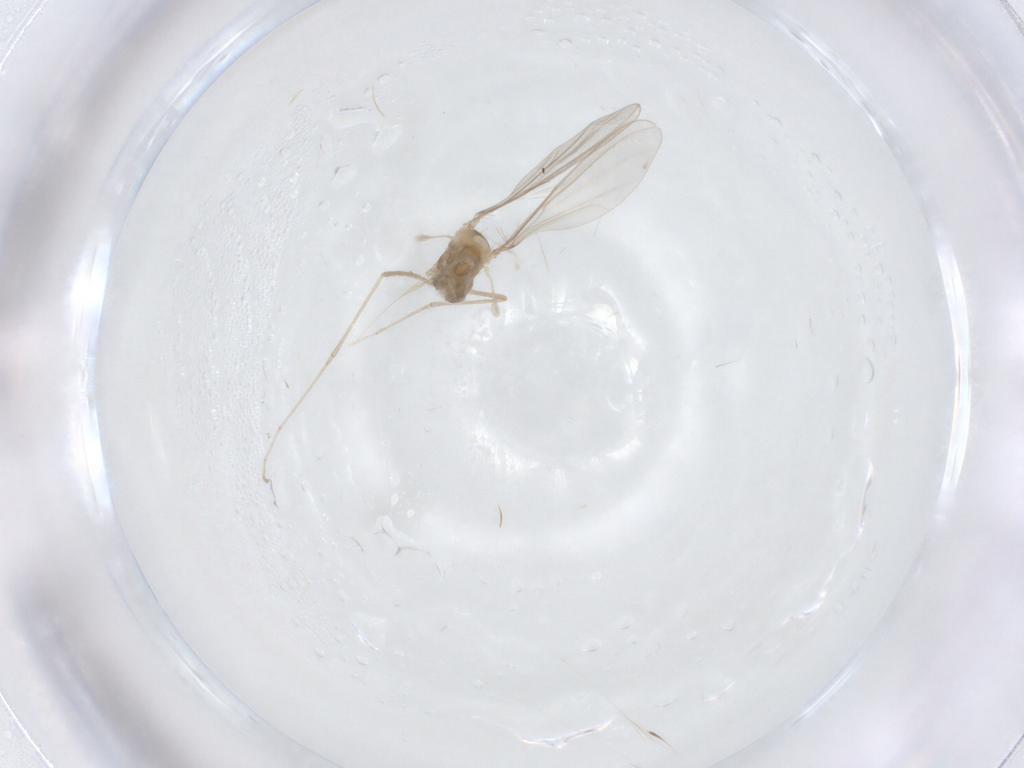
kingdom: Animalia
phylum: Arthropoda
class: Insecta
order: Diptera
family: Cecidomyiidae
